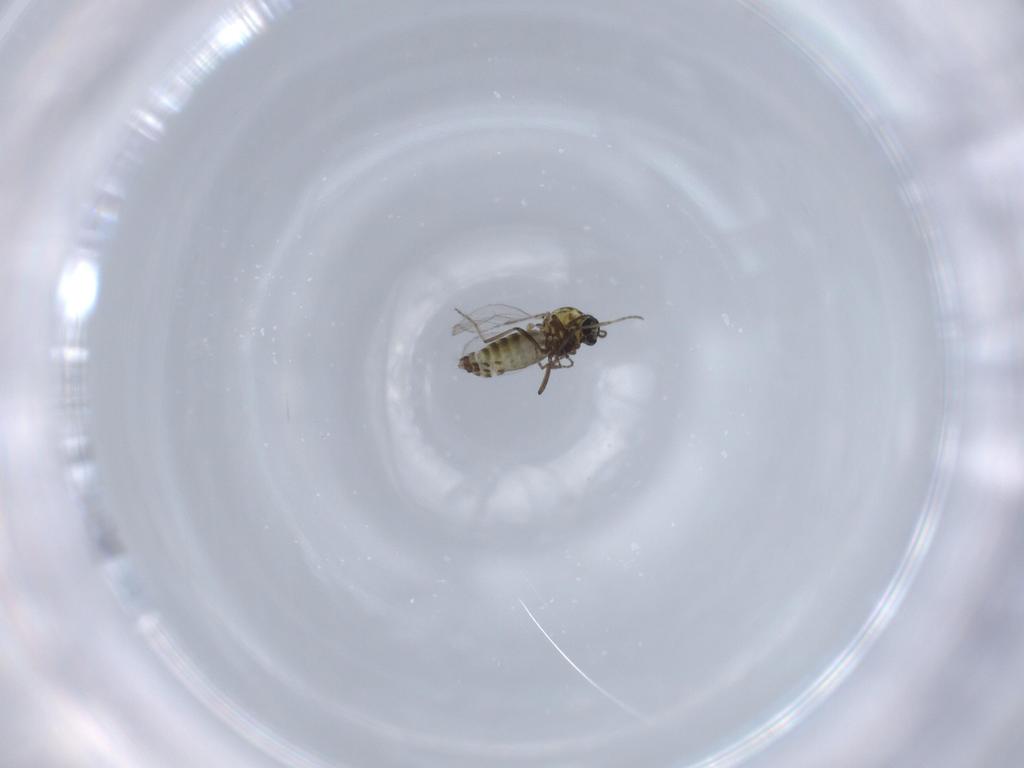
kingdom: Animalia
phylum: Arthropoda
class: Insecta
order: Diptera
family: Ceratopogonidae
